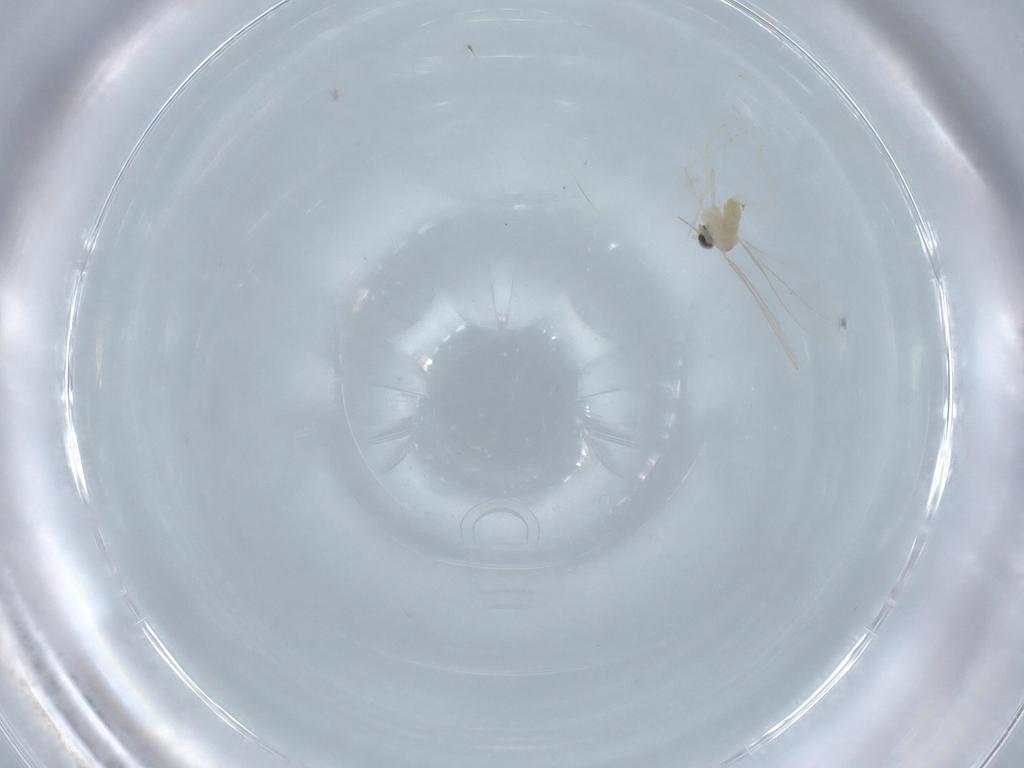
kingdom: Animalia
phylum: Arthropoda
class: Insecta
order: Diptera
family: Cecidomyiidae
